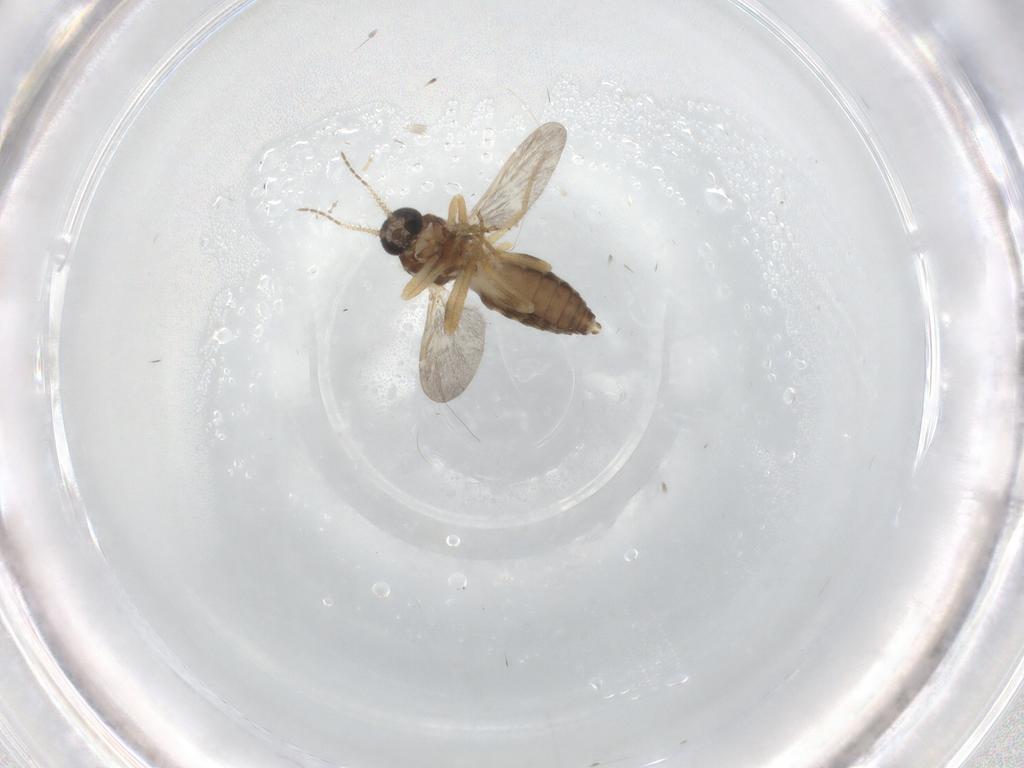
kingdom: Animalia
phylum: Arthropoda
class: Insecta
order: Diptera
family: Ceratopogonidae
